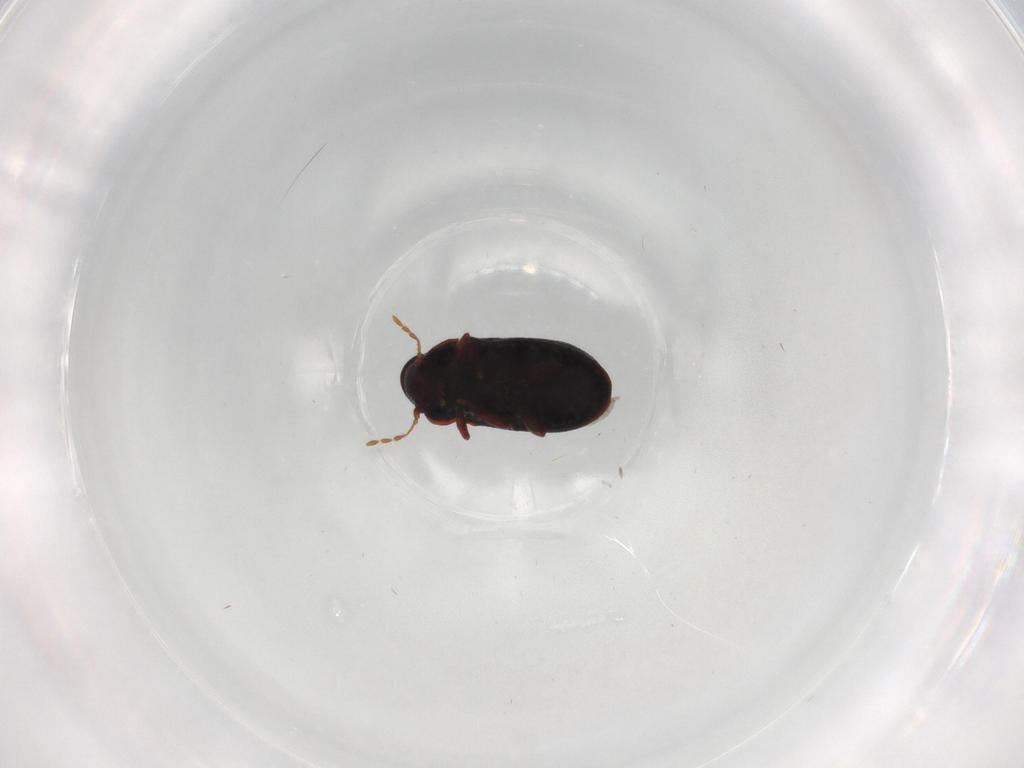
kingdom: Animalia
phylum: Arthropoda
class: Insecta
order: Coleoptera
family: Ptinidae
